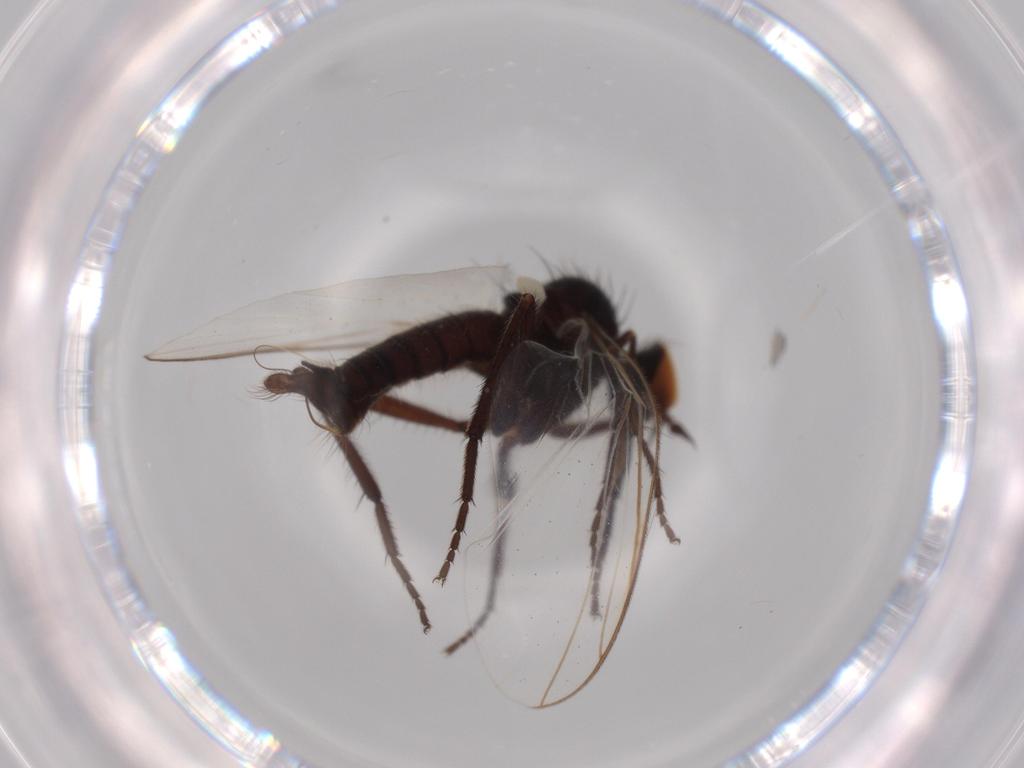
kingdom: Animalia
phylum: Arthropoda
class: Insecta
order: Diptera
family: Empididae
